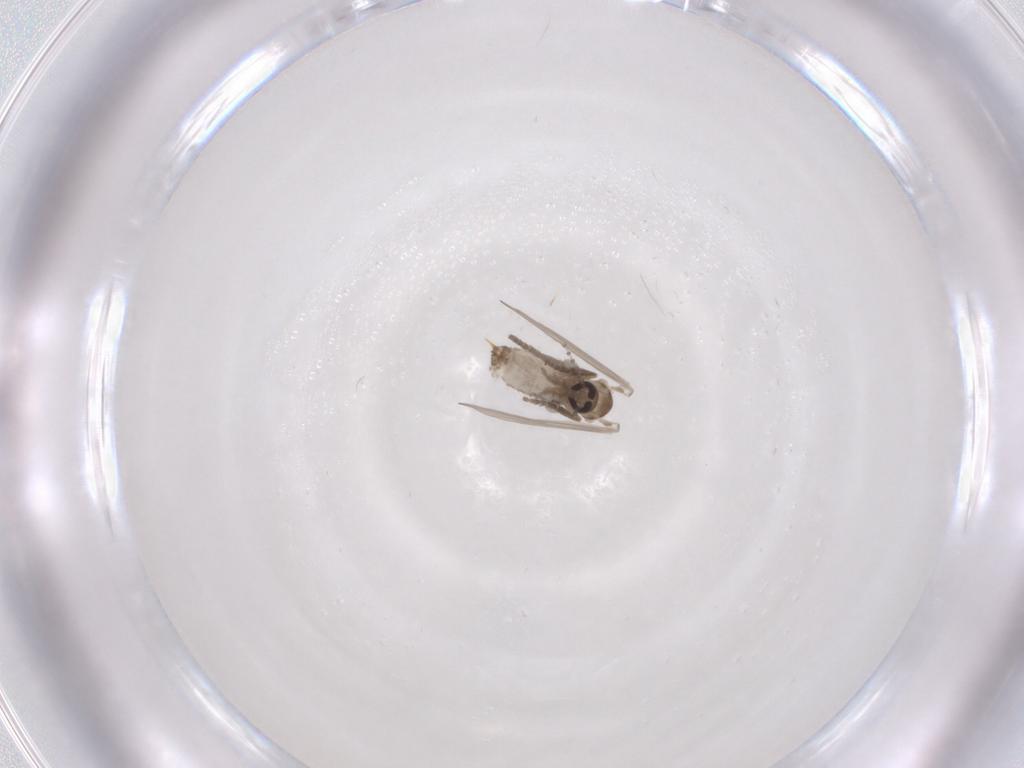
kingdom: Animalia
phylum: Arthropoda
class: Insecta
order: Diptera
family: Psychodidae
